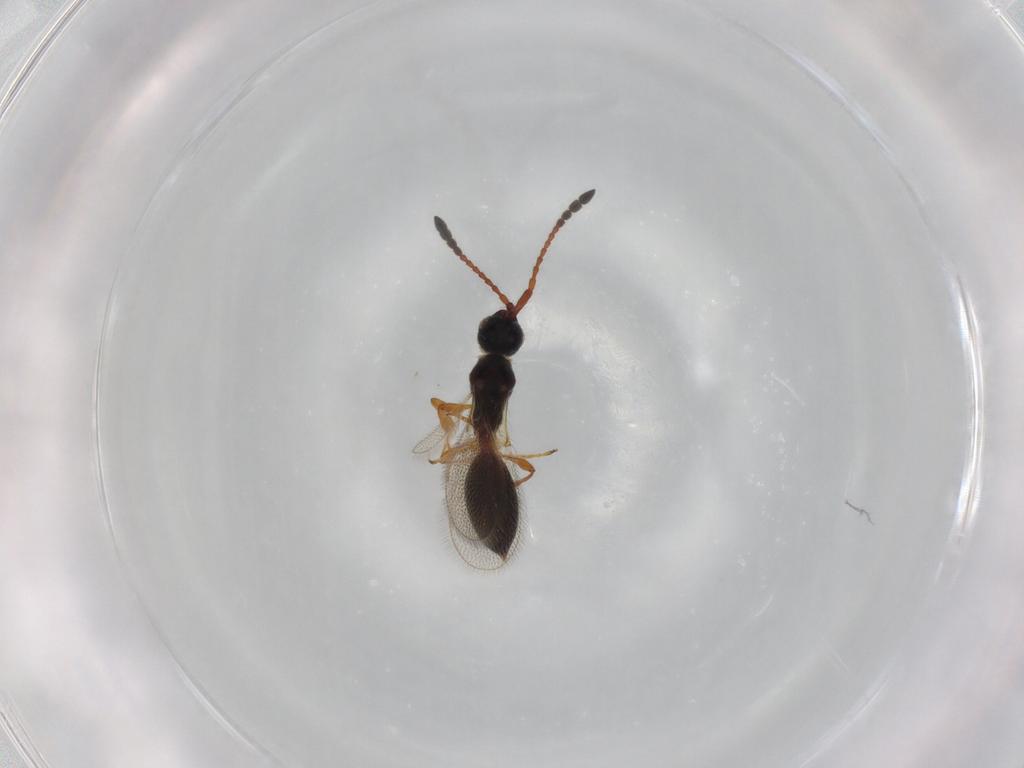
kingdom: Animalia
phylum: Arthropoda
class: Insecta
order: Hymenoptera
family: Diapriidae
